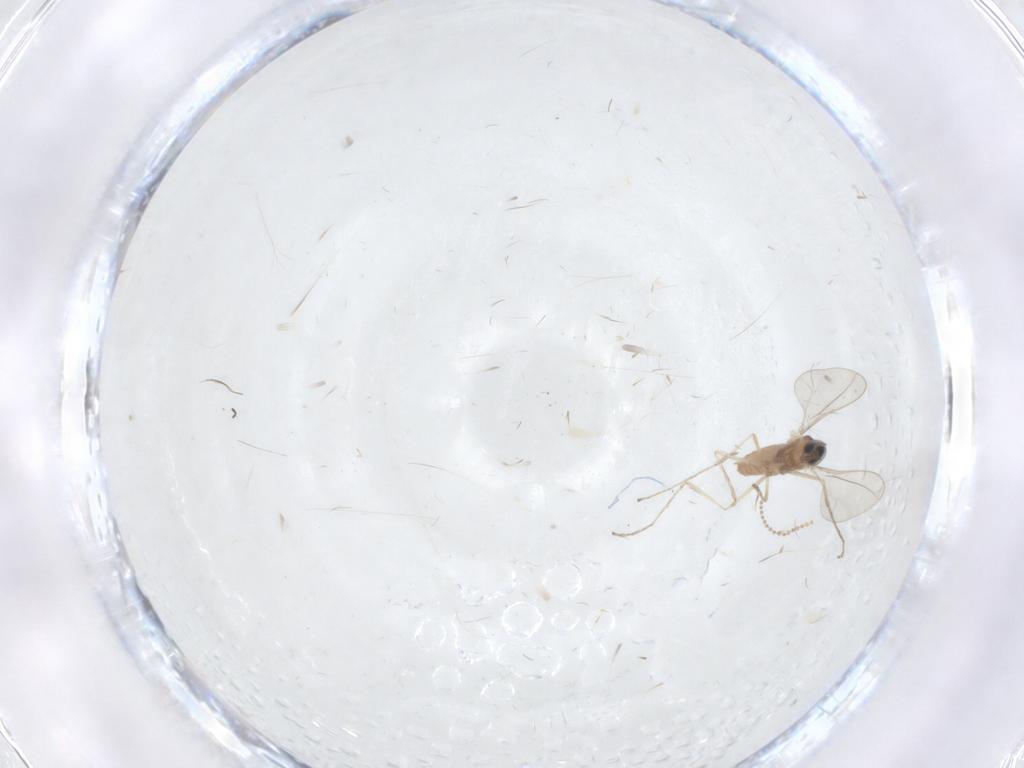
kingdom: Animalia
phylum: Arthropoda
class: Insecta
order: Diptera
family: Cecidomyiidae
